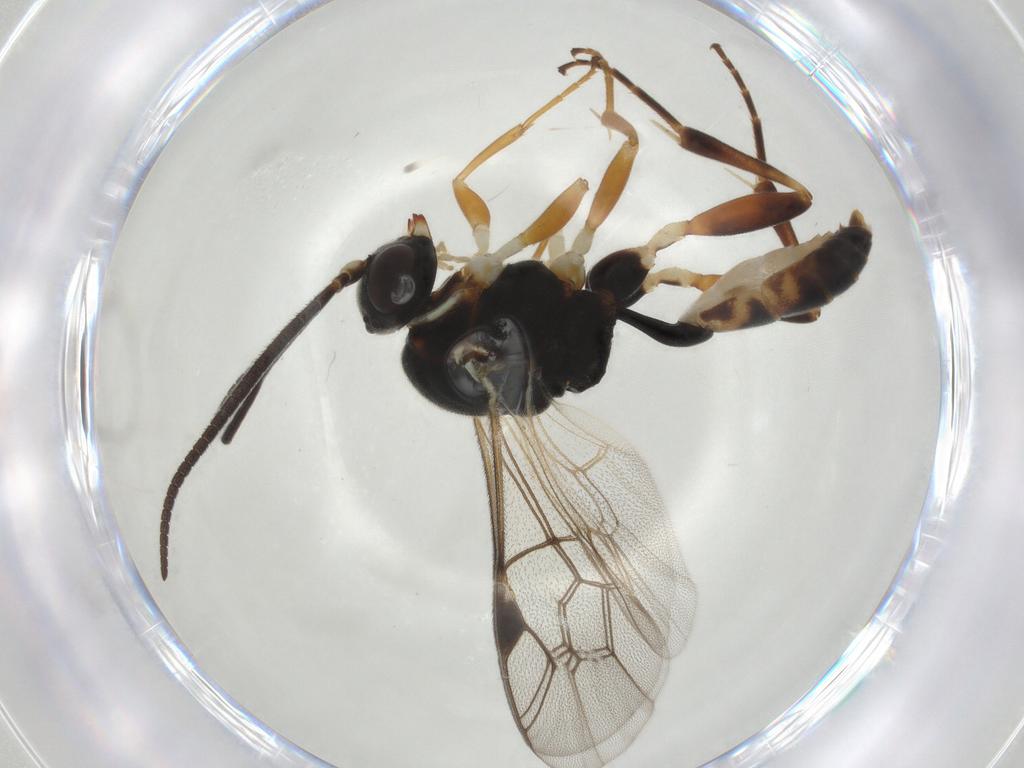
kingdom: Animalia
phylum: Arthropoda
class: Insecta
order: Hymenoptera
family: Ichneumonidae
